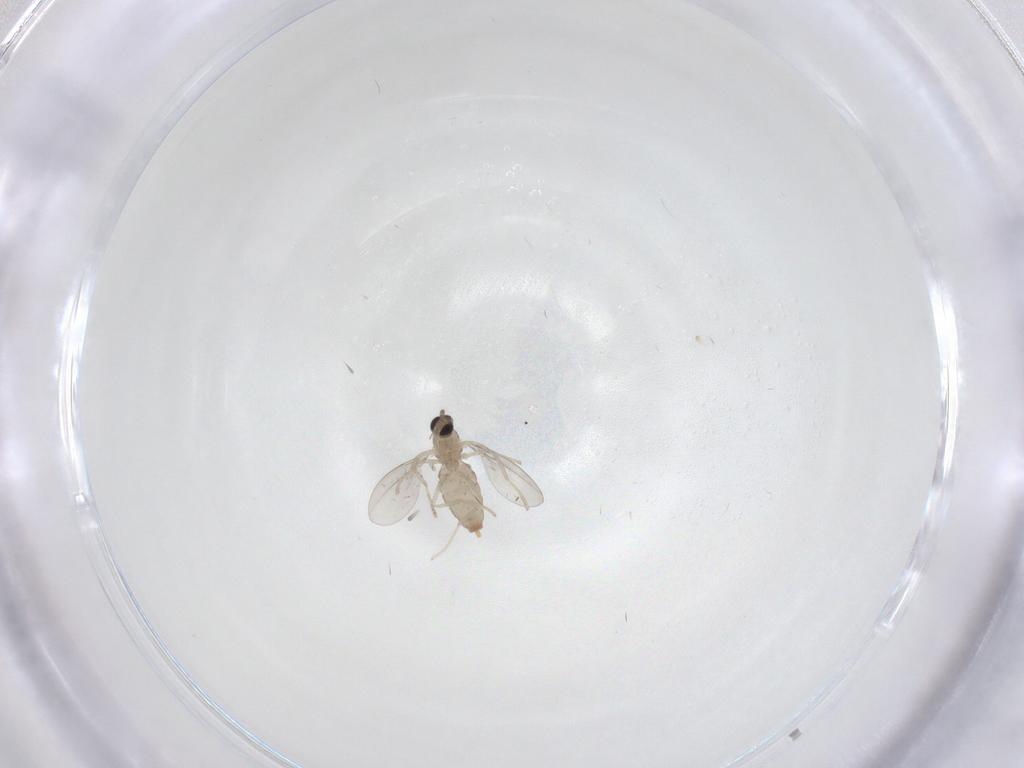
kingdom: Animalia
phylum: Arthropoda
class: Insecta
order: Diptera
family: Cecidomyiidae
